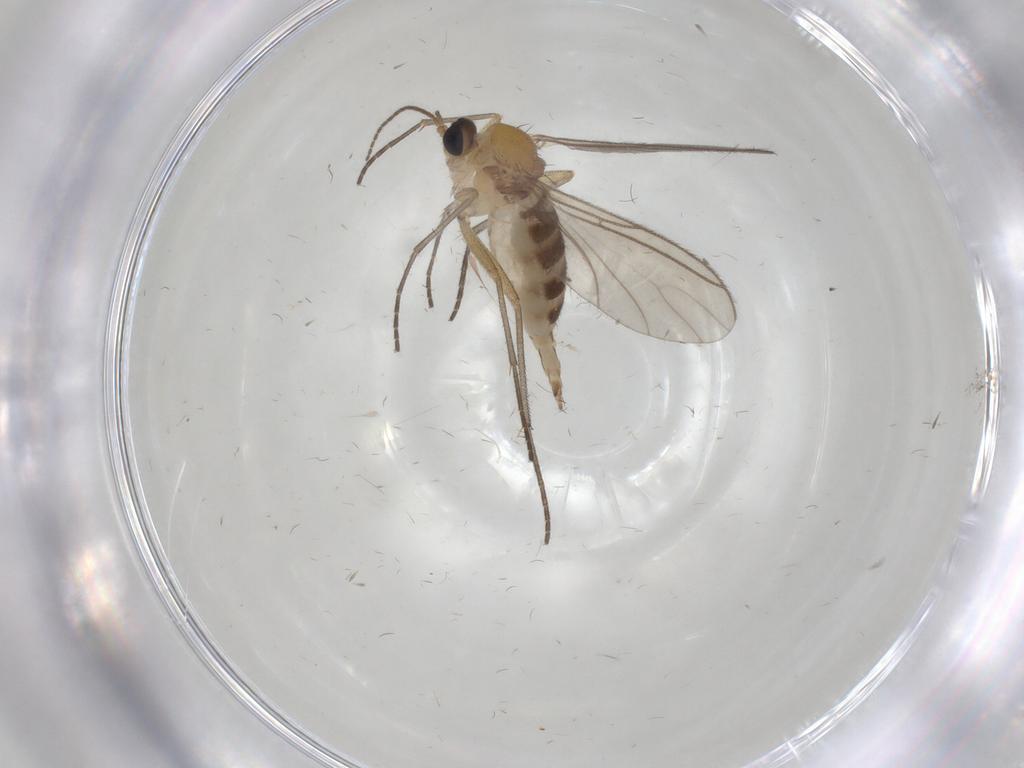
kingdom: Animalia
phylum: Arthropoda
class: Insecta
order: Diptera
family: Sciaridae
